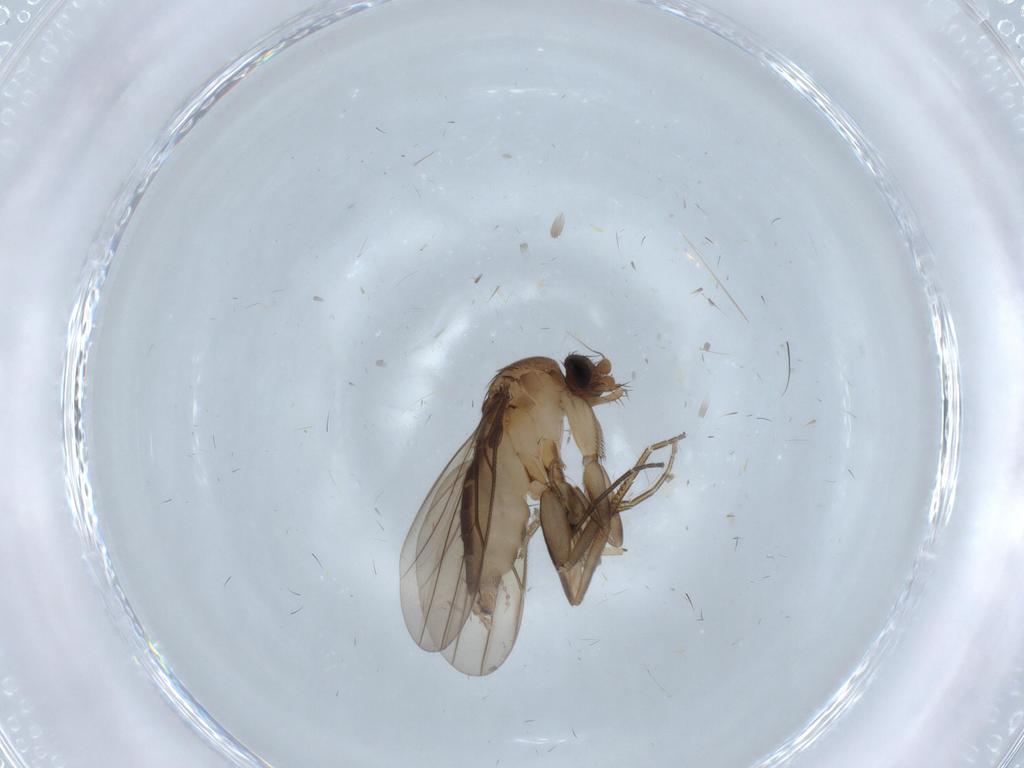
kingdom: Animalia
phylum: Arthropoda
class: Insecta
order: Diptera
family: Phoridae
